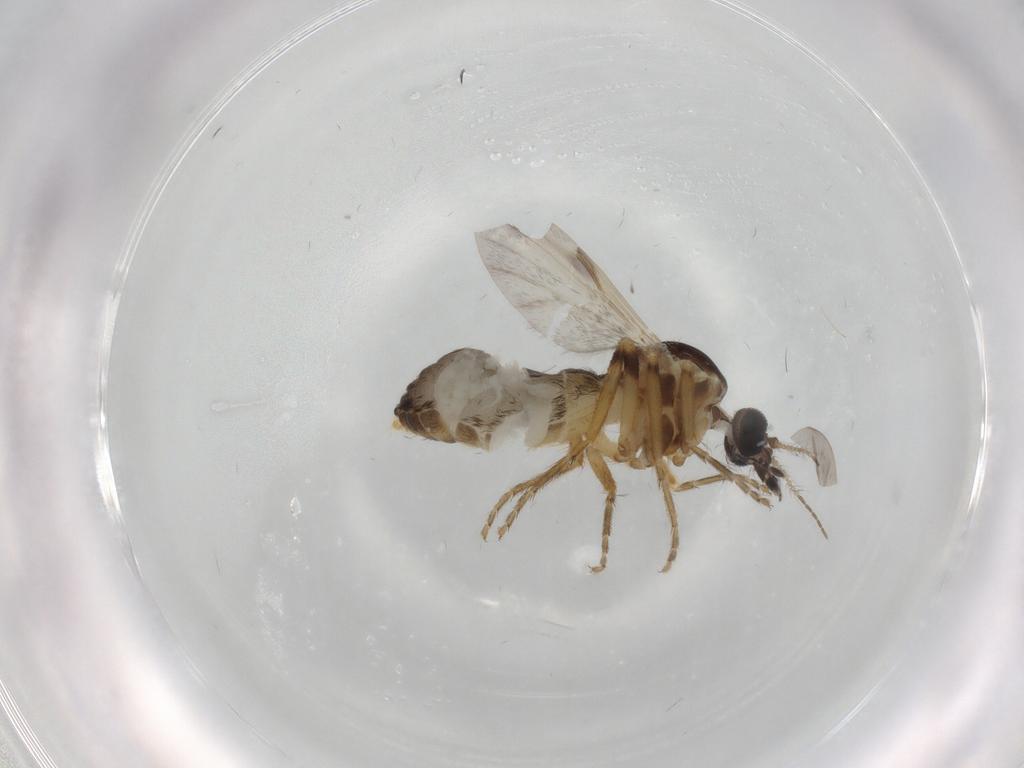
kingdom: Animalia
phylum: Arthropoda
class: Insecta
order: Diptera
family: Ceratopogonidae
